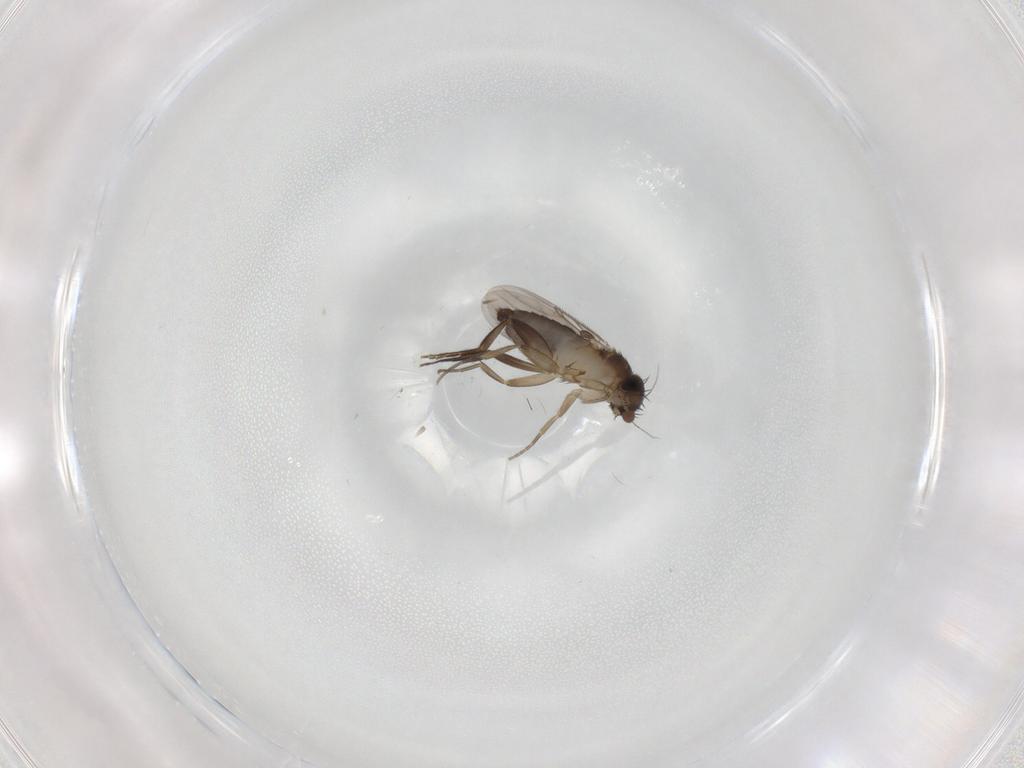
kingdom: Animalia
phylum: Arthropoda
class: Insecta
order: Diptera
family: Phoridae
